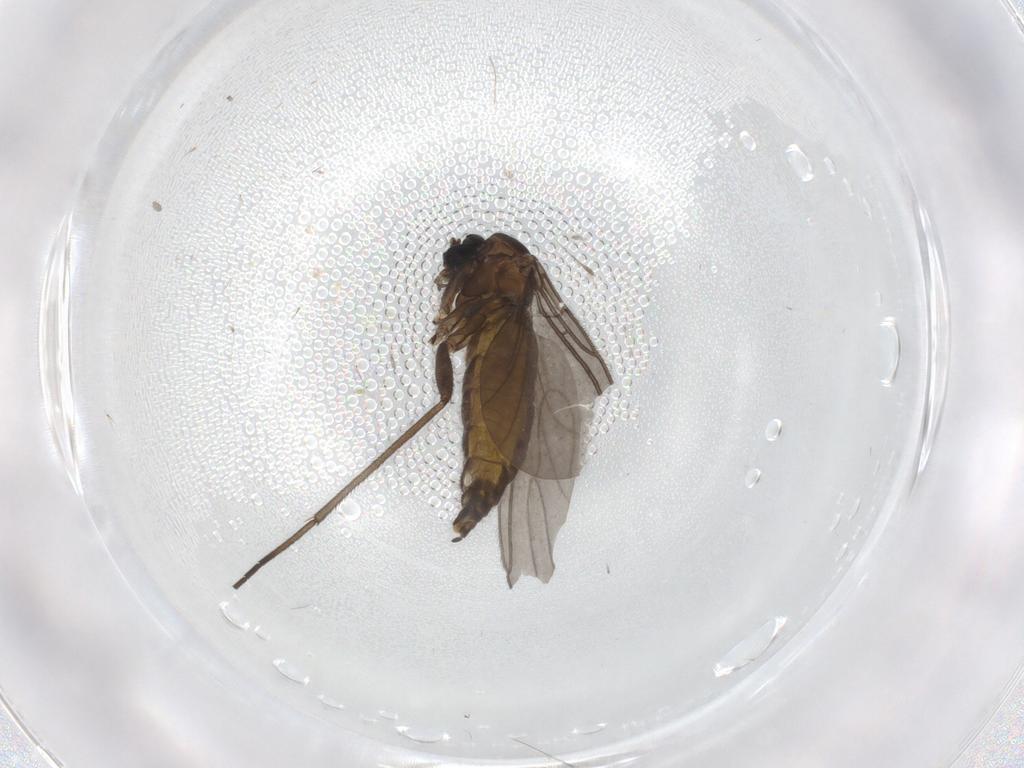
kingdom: Animalia
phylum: Arthropoda
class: Insecta
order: Diptera
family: Sciaridae
